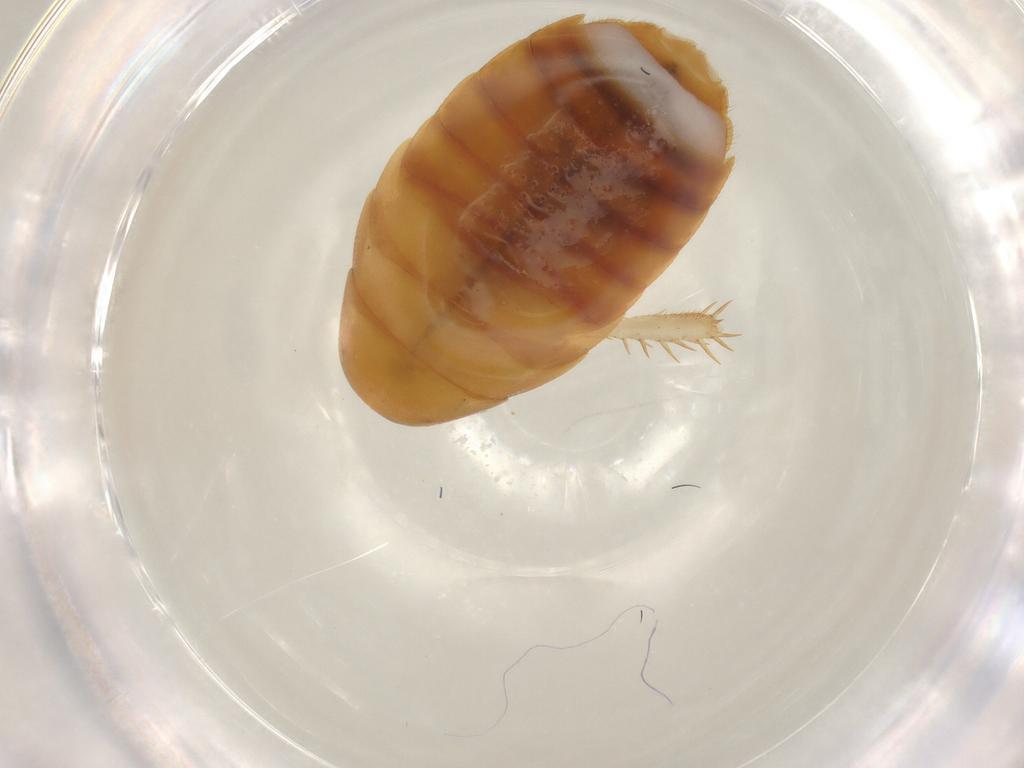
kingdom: Animalia
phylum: Arthropoda
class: Insecta
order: Blattodea
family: Blaberidae
